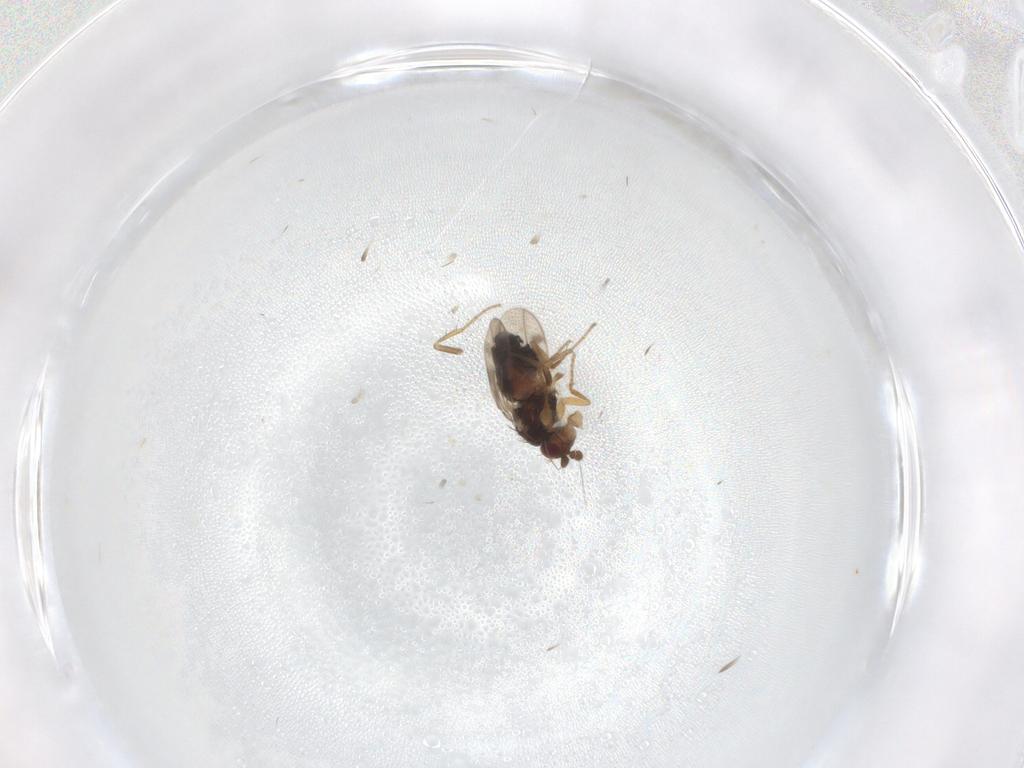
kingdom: Animalia
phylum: Arthropoda
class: Insecta
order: Diptera
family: Sphaeroceridae
